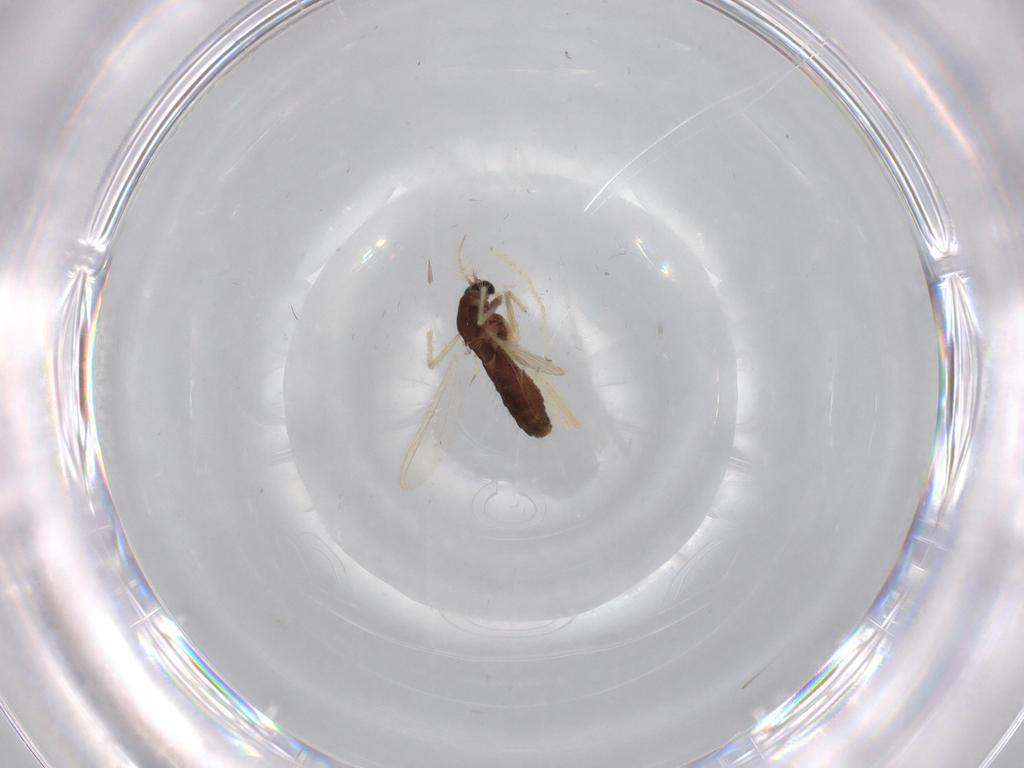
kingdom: Animalia
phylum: Arthropoda
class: Insecta
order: Diptera
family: Chironomidae
